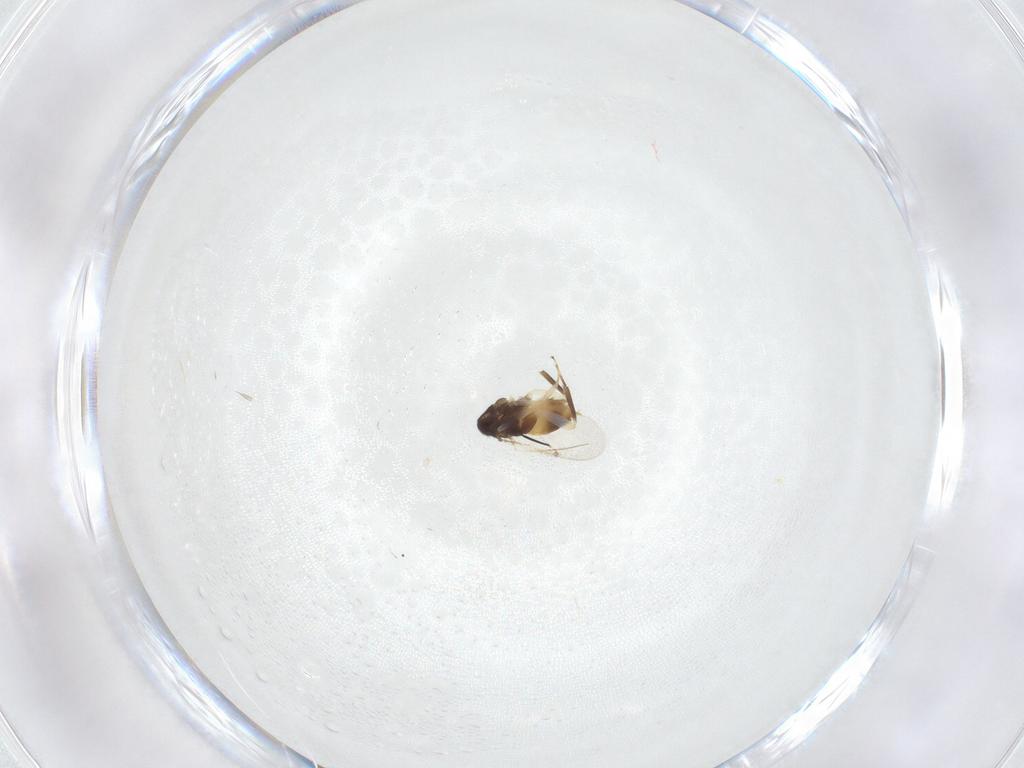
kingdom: Animalia
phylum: Arthropoda
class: Insecta
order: Hymenoptera
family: Aphelinidae
